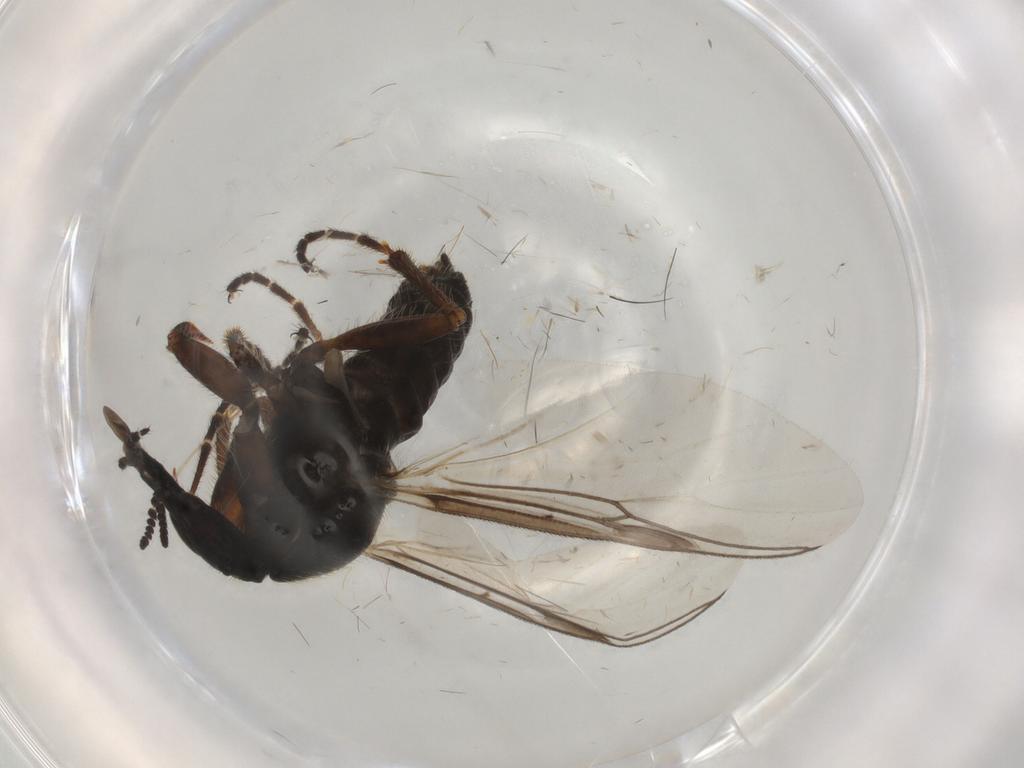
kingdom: Animalia
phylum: Arthropoda
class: Insecta
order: Diptera
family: Bibionidae
